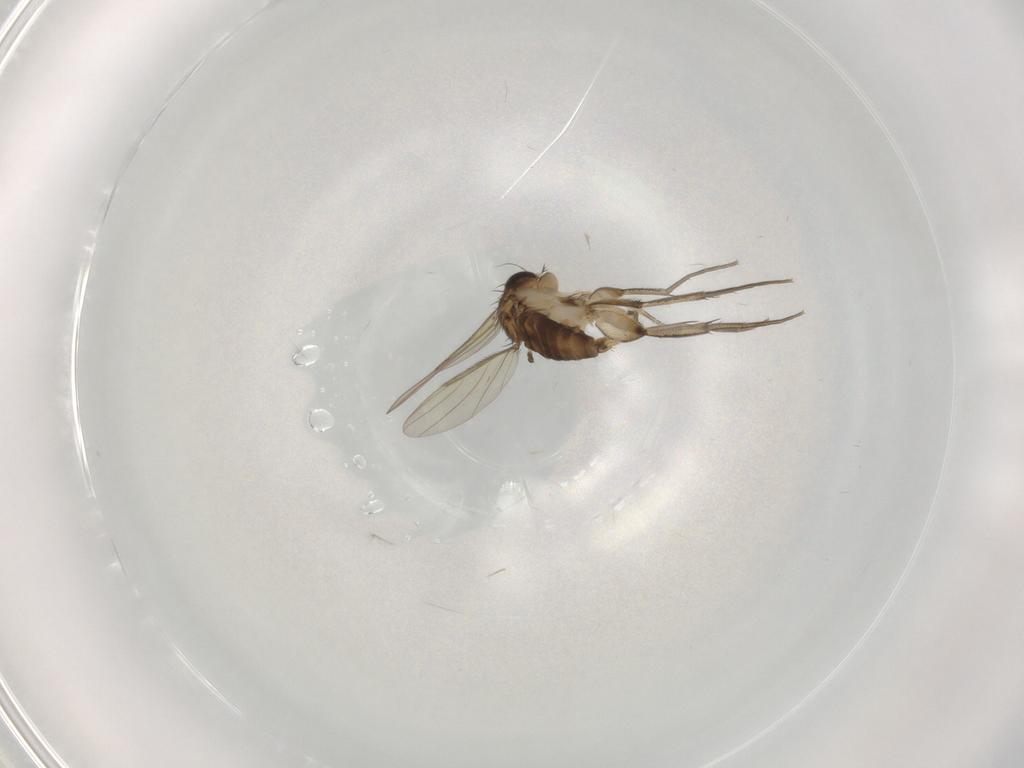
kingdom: Animalia
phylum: Arthropoda
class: Insecta
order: Diptera
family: Phoridae
